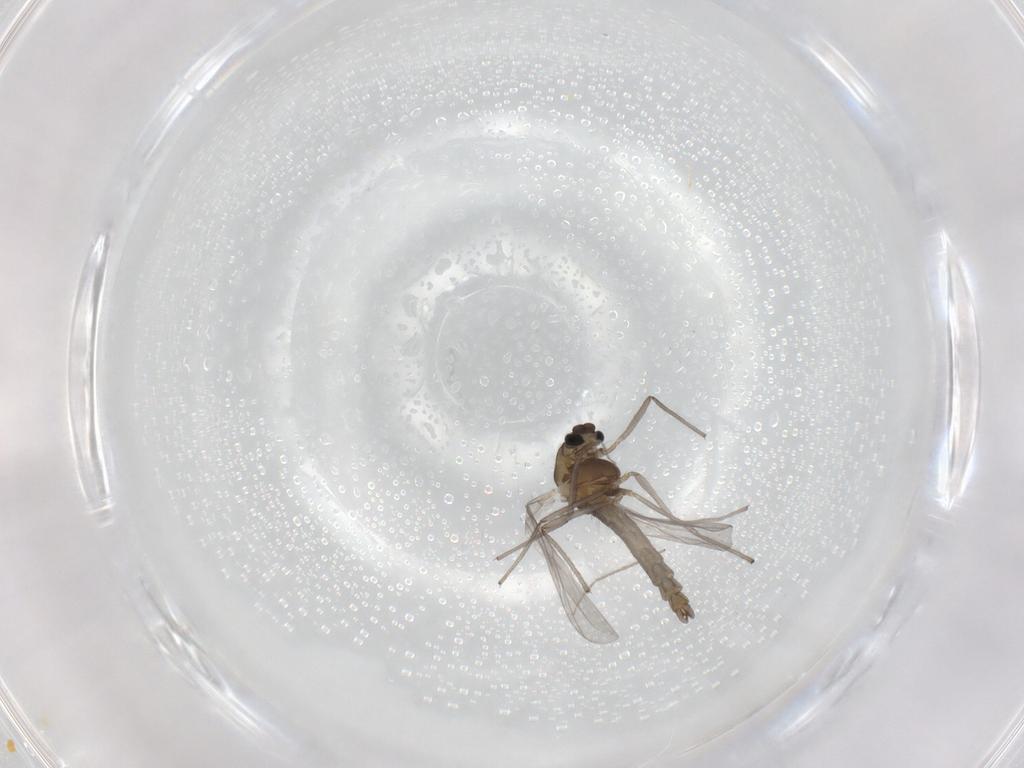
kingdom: Animalia
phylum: Arthropoda
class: Insecta
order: Diptera
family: Chironomidae
